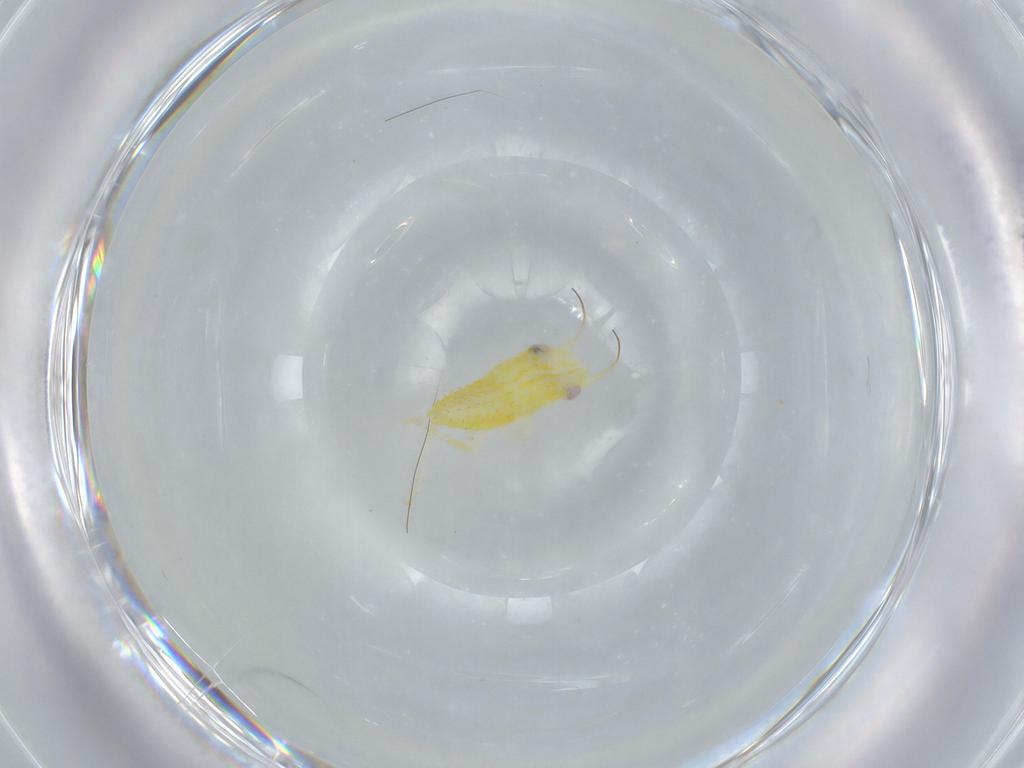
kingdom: Animalia
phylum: Arthropoda
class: Insecta
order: Hemiptera
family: Cicadellidae
